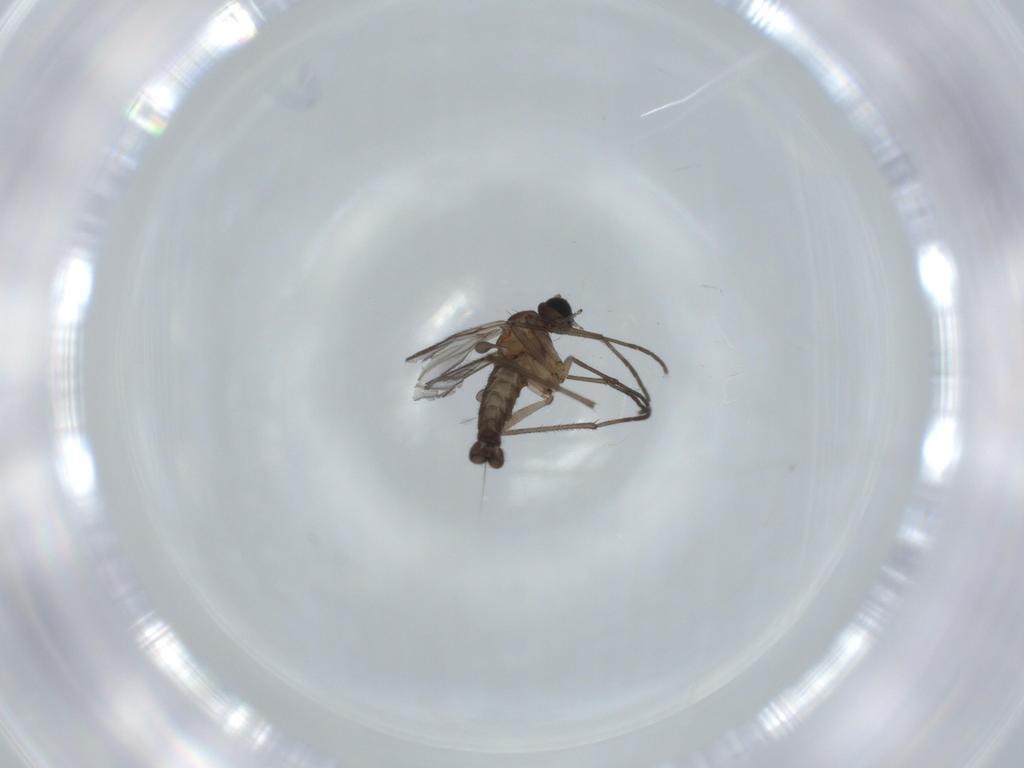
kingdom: Animalia
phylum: Arthropoda
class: Insecta
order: Diptera
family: Sciaridae
